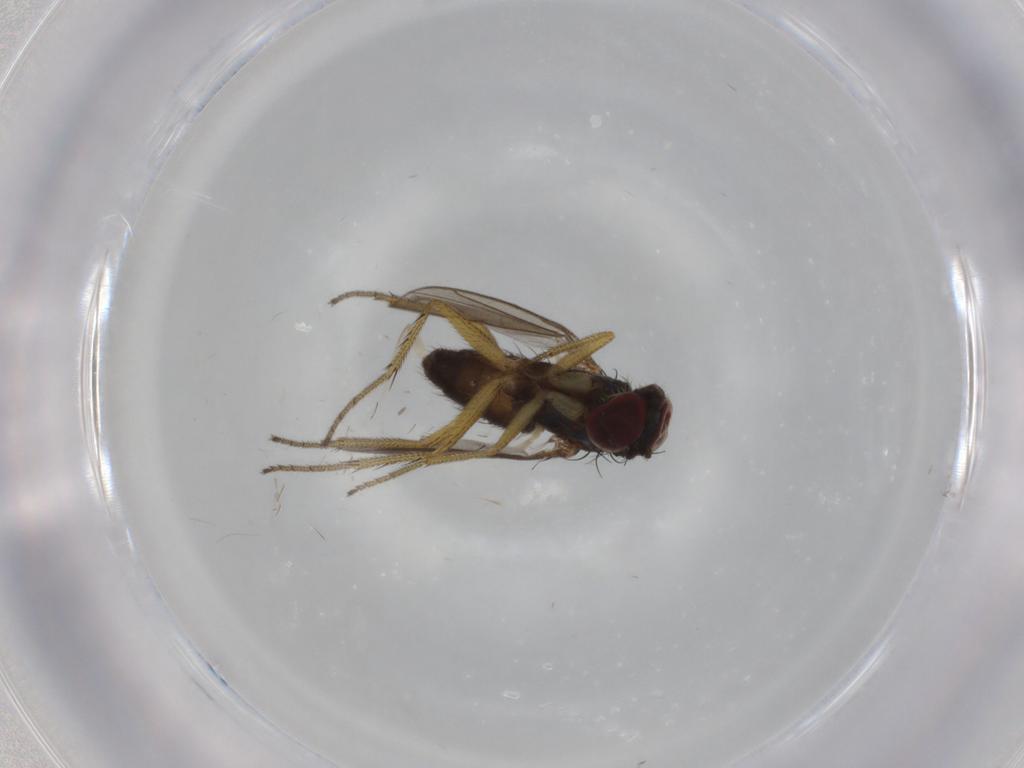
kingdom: Animalia
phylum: Arthropoda
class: Insecta
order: Diptera
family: Dolichopodidae
